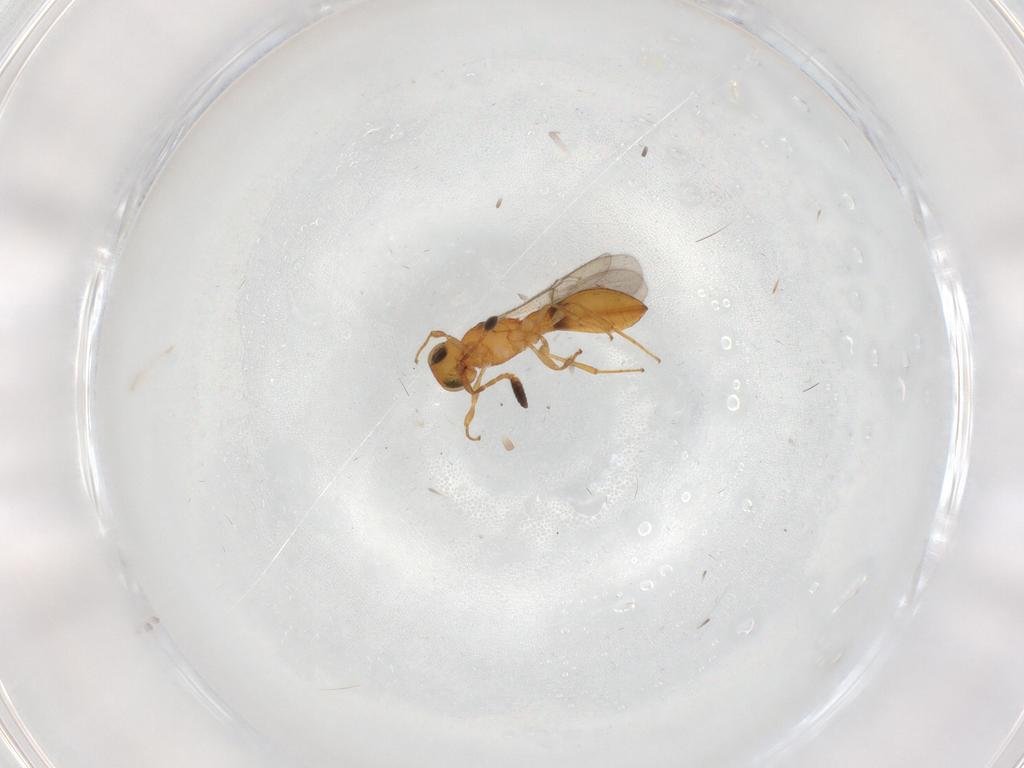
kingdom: Animalia
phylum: Arthropoda
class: Insecta
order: Hymenoptera
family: Scelionidae
